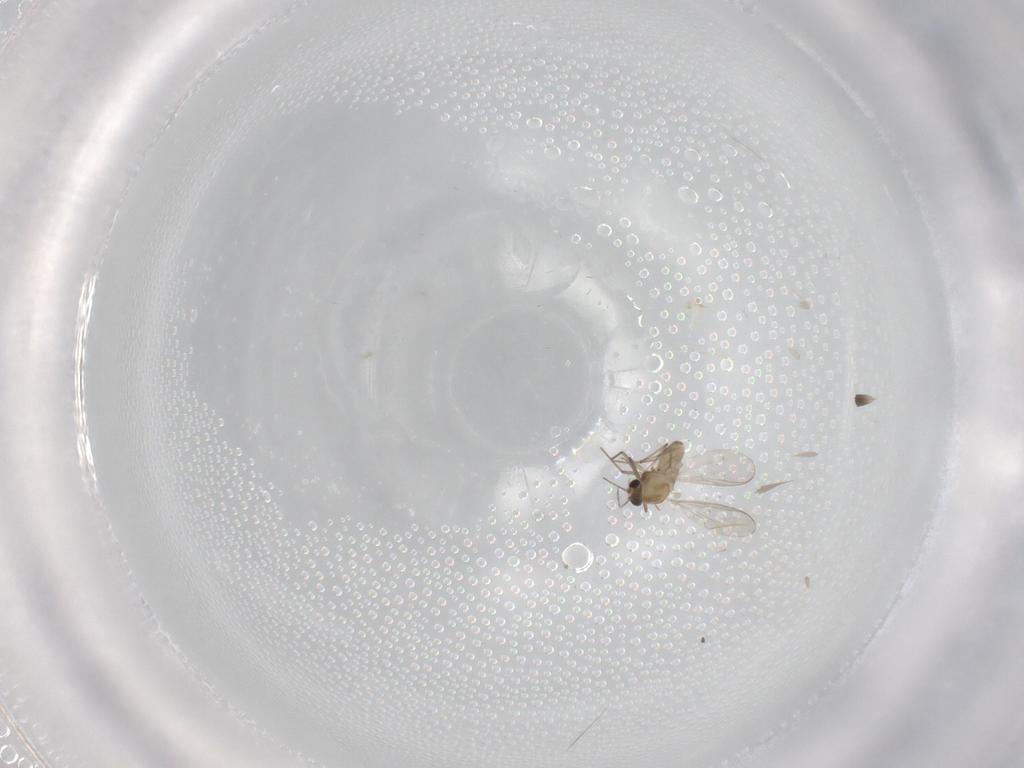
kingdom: Animalia
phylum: Arthropoda
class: Insecta
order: Diptera
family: Chironomidae
